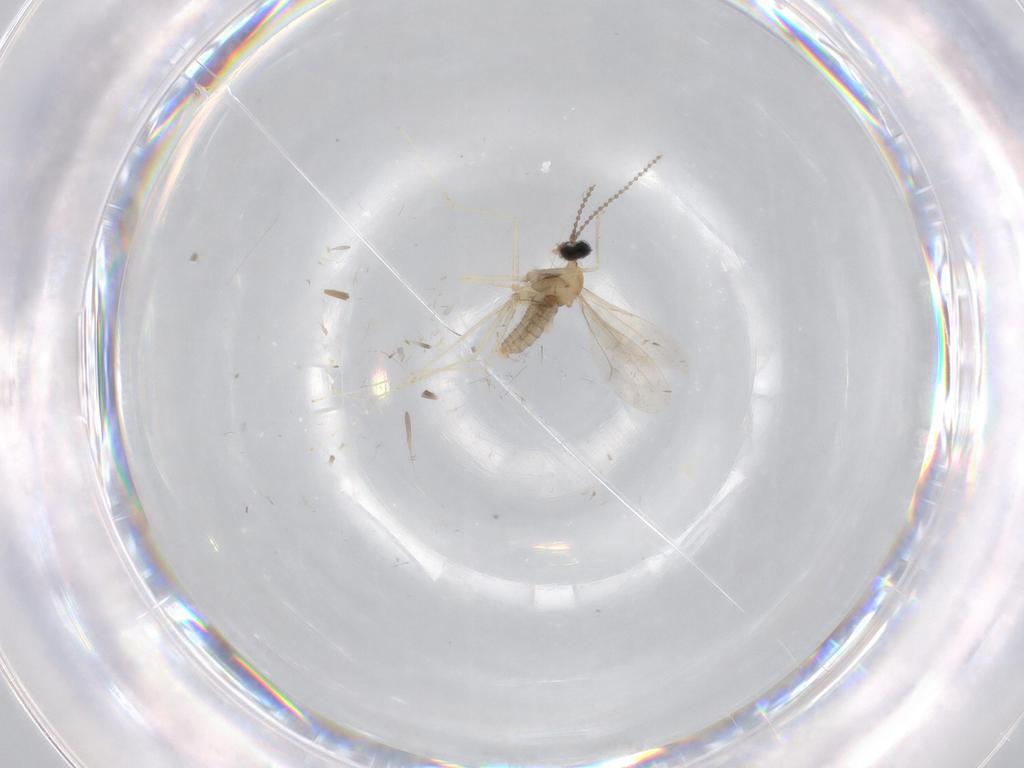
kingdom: Animalia
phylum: Arthropoda
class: Insecta
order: Diptera
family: Cecidomyiidae
